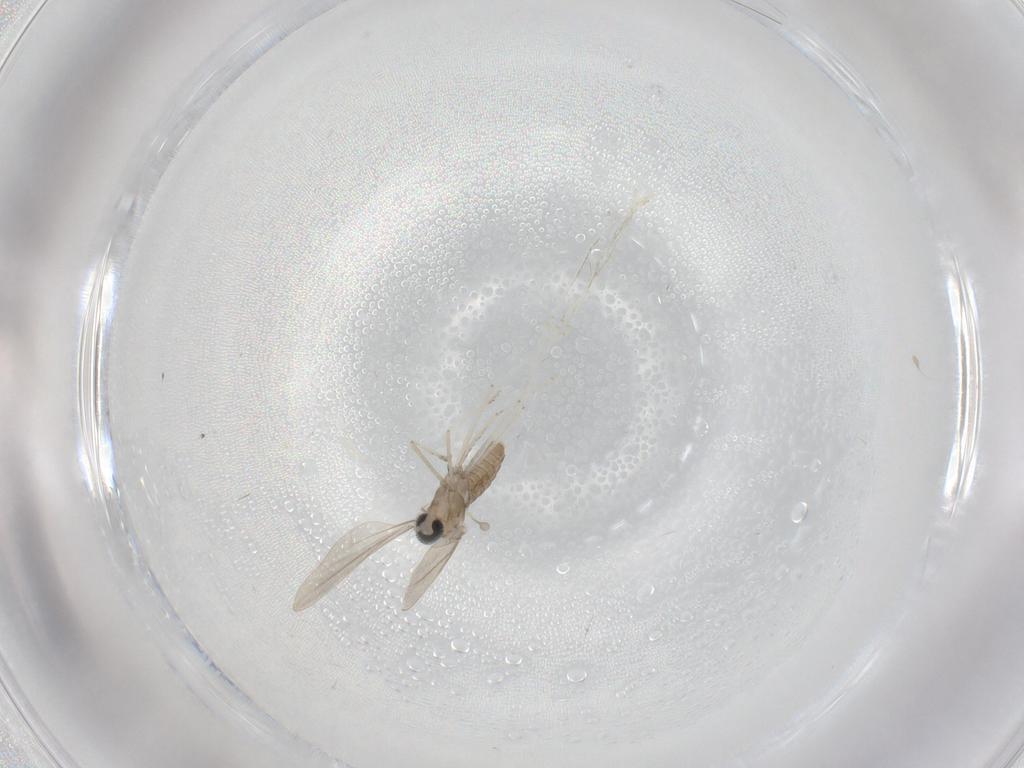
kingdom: Animalia
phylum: Arthropoda
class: Insecta
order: Diptera
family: Cecidomyiidae
